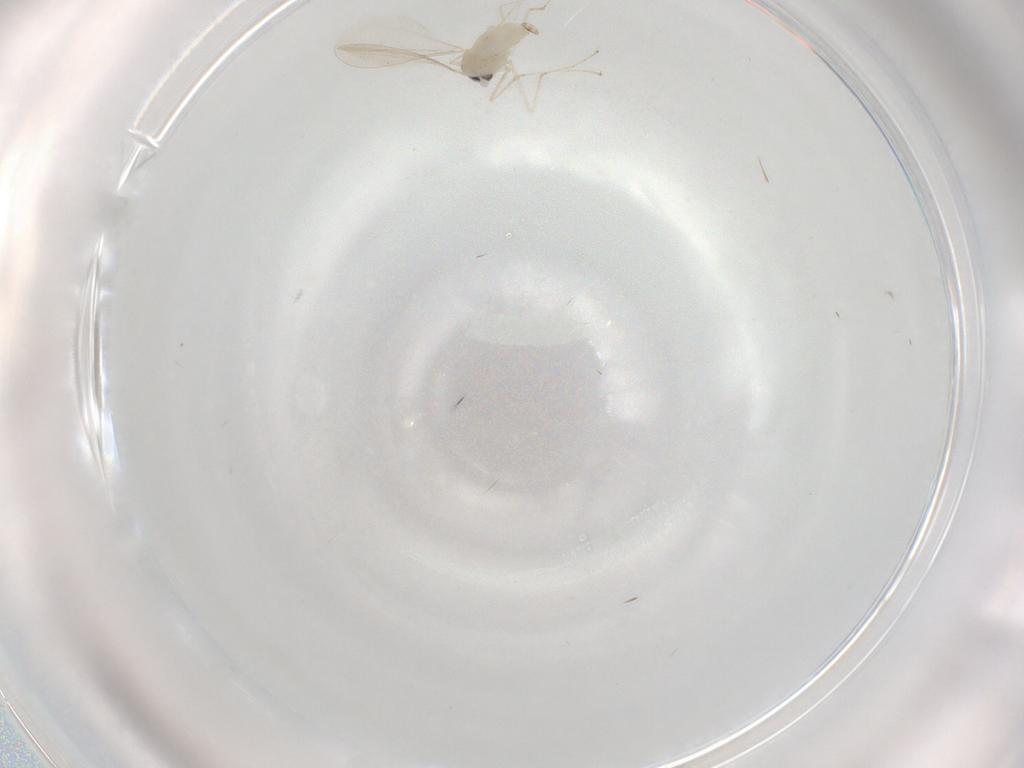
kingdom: Animalia
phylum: Arthropoda
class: Insecta
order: Diptera
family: Cecidomyiidae
